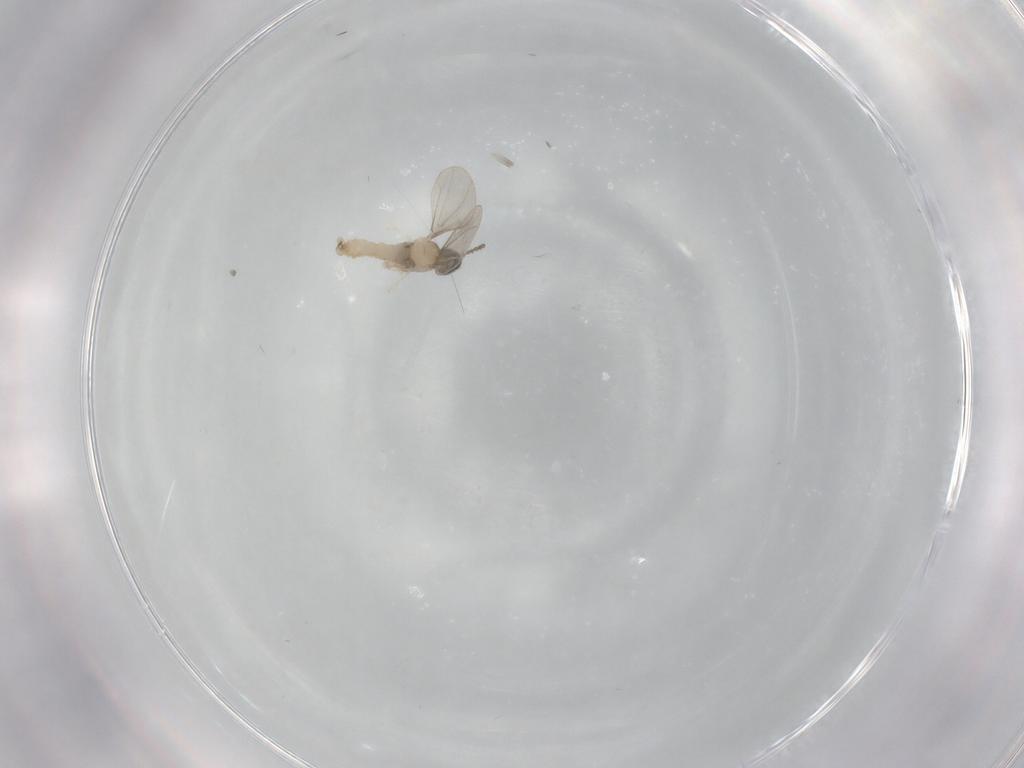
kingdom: Animalia
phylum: Arthropoda
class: Insecta
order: Diptera
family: Cecidomyiidae
